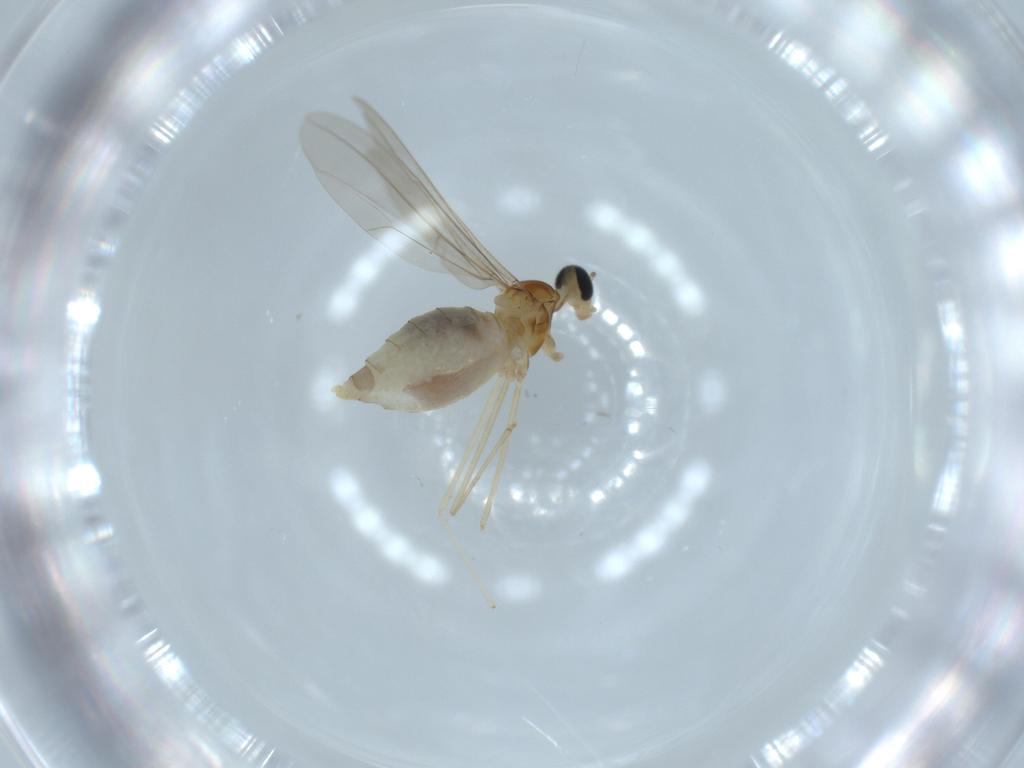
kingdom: Animalia
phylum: Arthropoda
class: Insecta
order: Diptera
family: Cecidomyiidae
